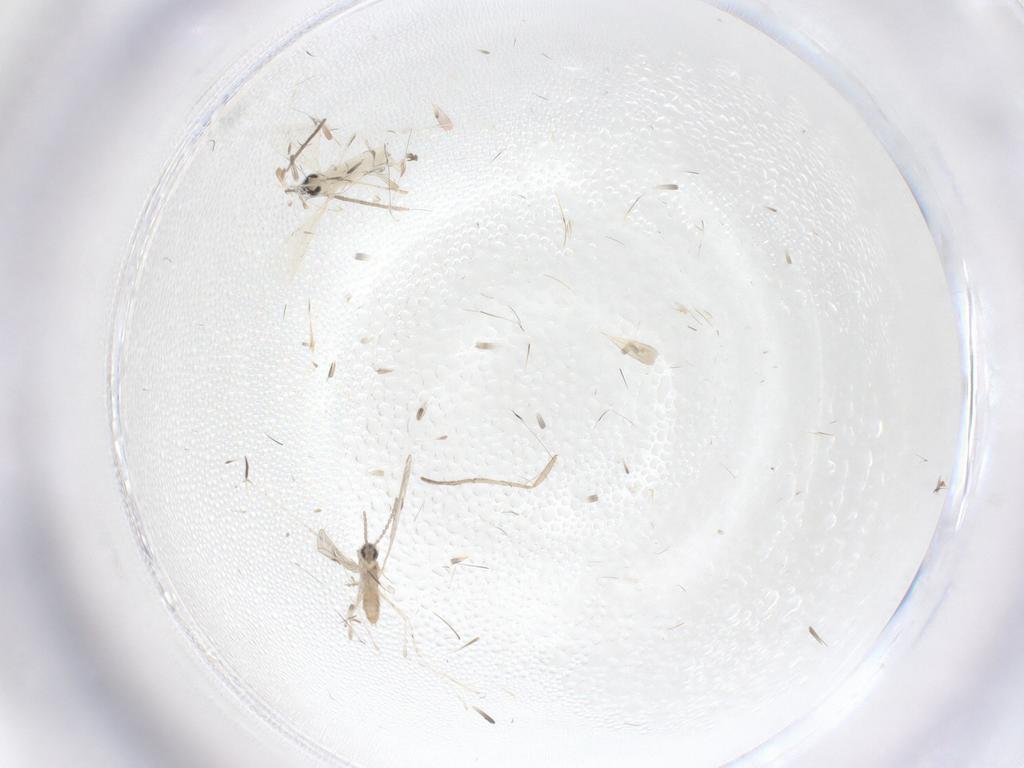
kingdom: Animalia
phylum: Arthropoda
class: Insecta
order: Diptera
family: Cecidomyiidae
